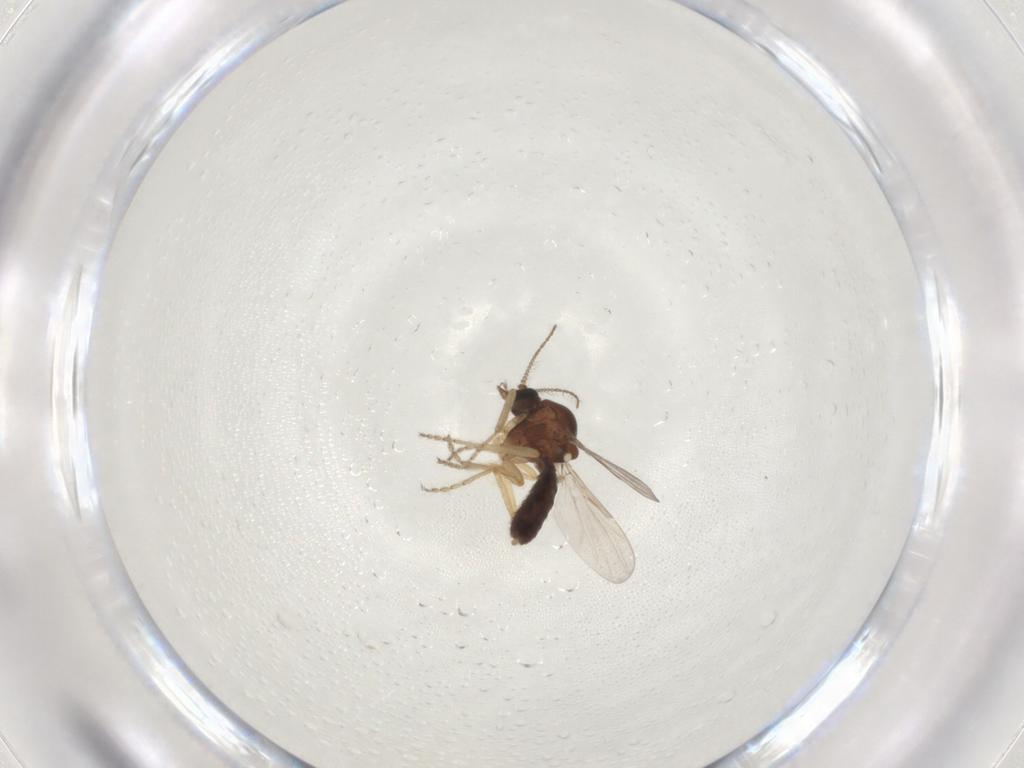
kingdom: Animalia
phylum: Arthropoda
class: Insecta
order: Diptera
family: Ceratopogonidae
